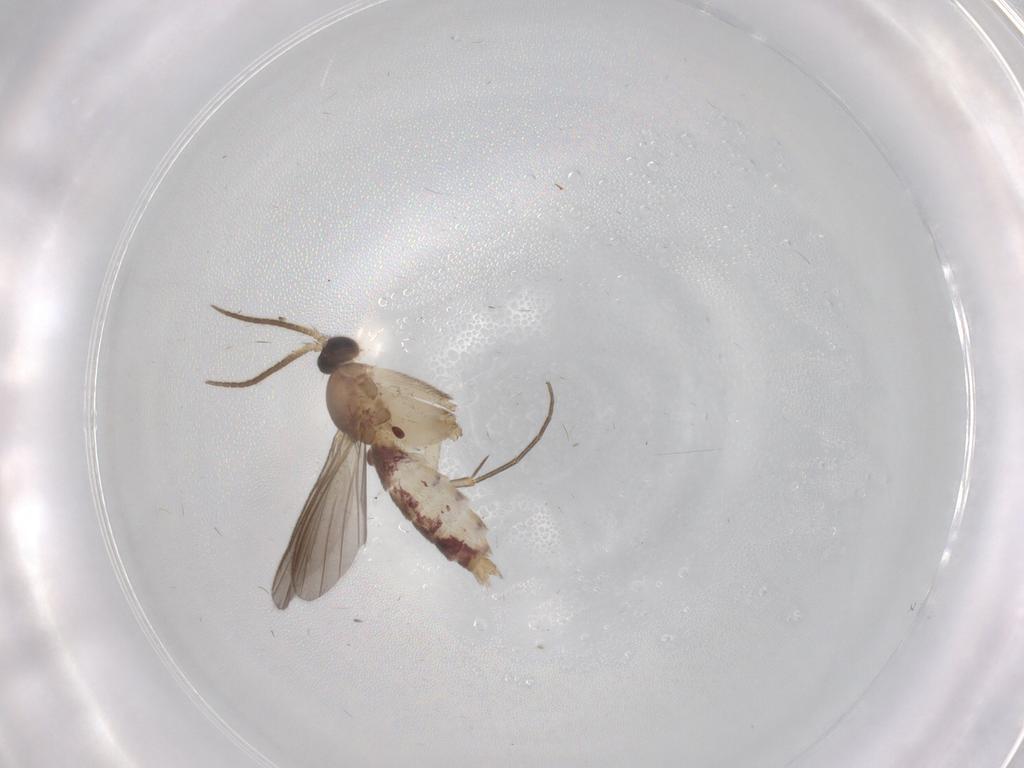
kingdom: Animalia
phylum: Arthropoda
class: Insecta
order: Diptera
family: Mycetophilidae
